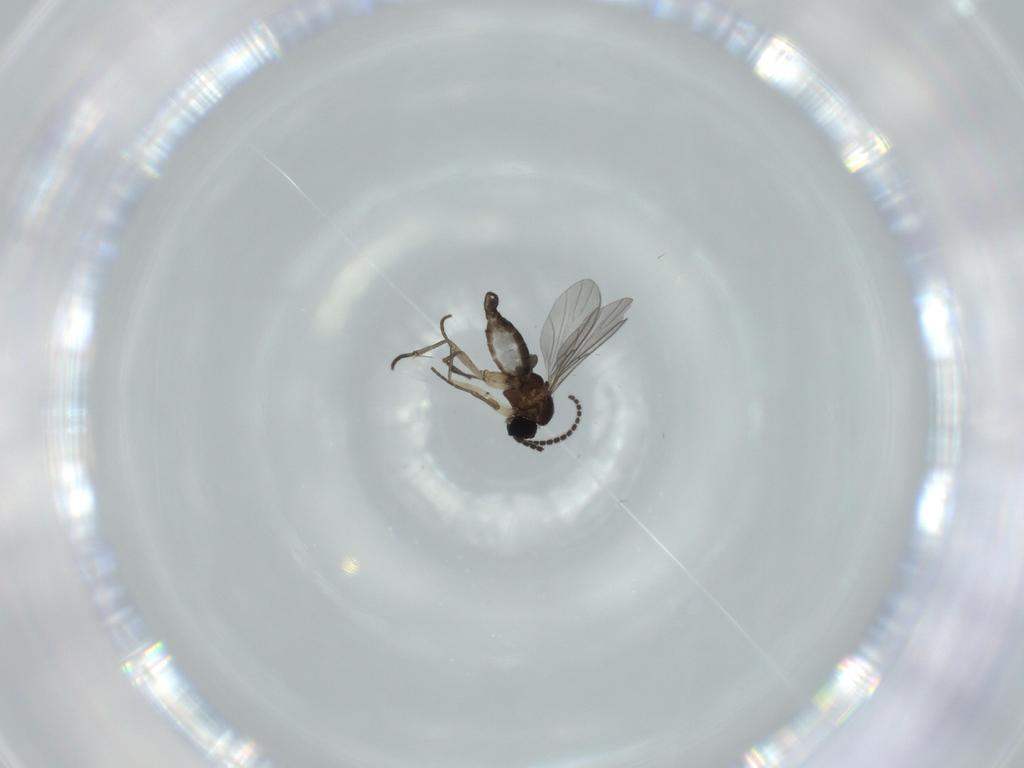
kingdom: Animalia
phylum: Arthropoda
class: Insecta
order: Diptera
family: Sciaridae
